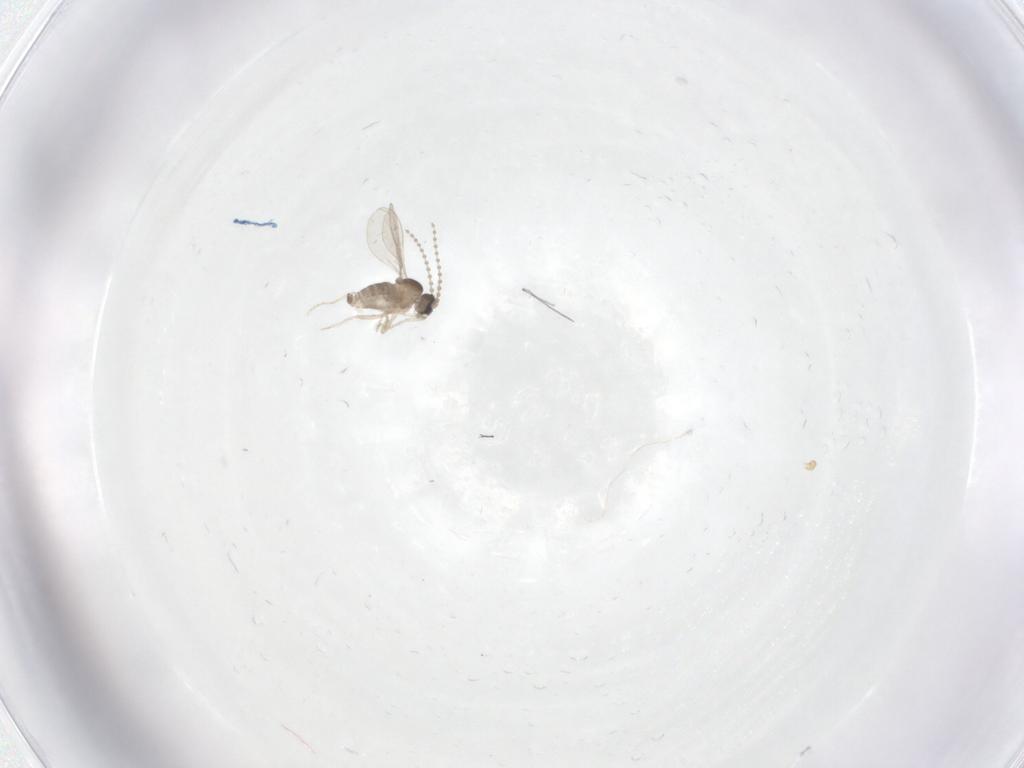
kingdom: Animalia
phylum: Arthropoda
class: Insecta
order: Diptera
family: Cecidomyiidae
